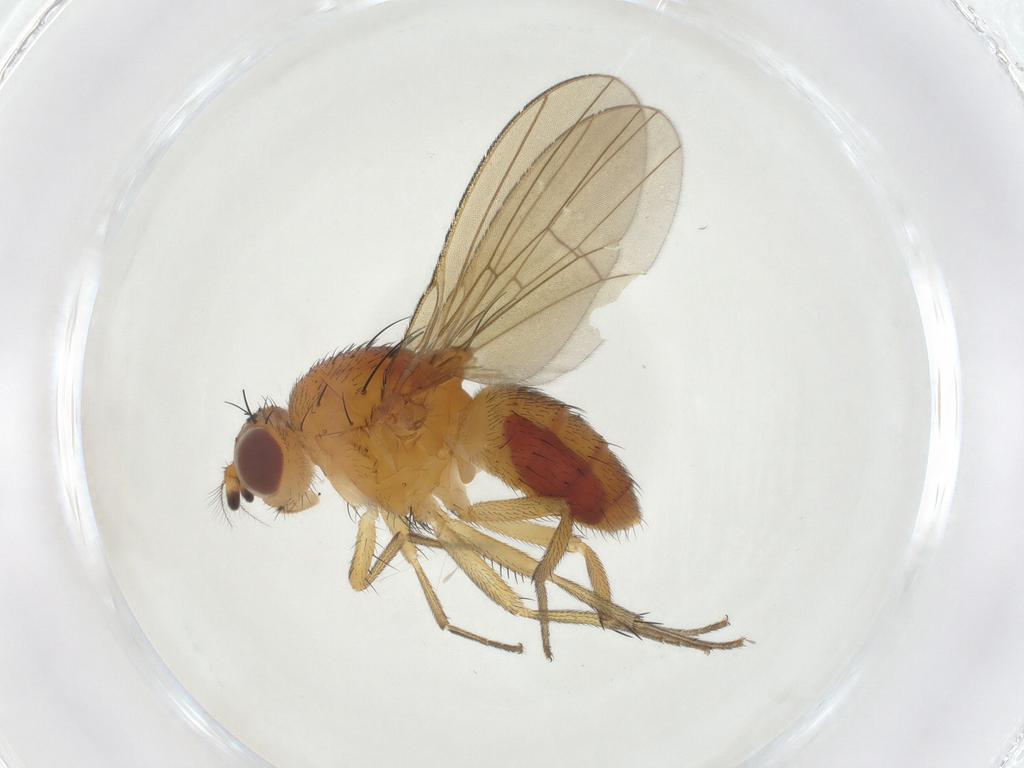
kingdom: Animalia
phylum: Arthropoda
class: Insecta
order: Diptera
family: Lauxaniidae
